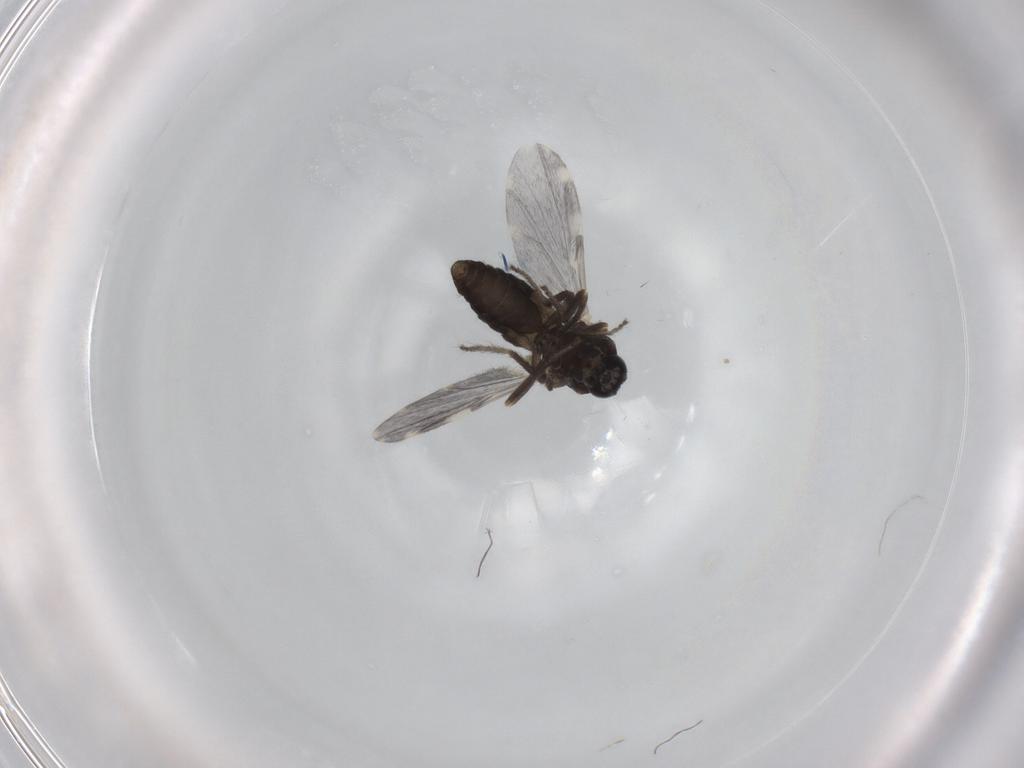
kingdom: Animalia
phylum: Arthropoda
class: Insecta
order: Diptera
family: Ceratopogonidae
